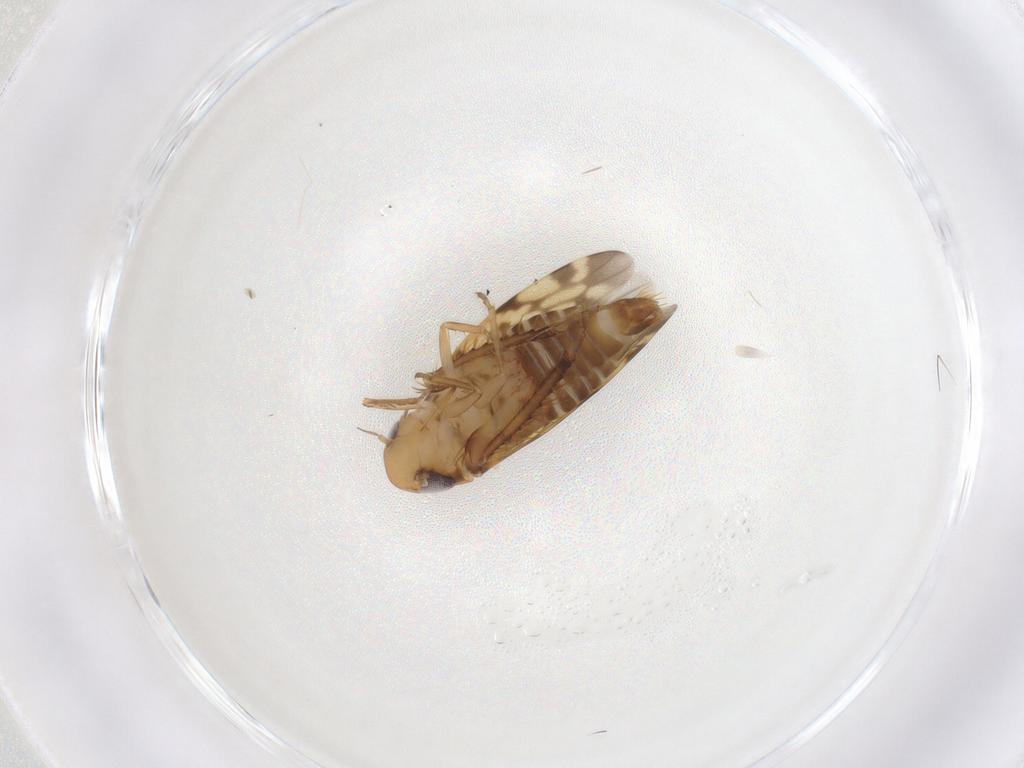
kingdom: Animalia
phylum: Arthropoda
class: Insecta
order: Hemiptera
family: Cicadellidae
